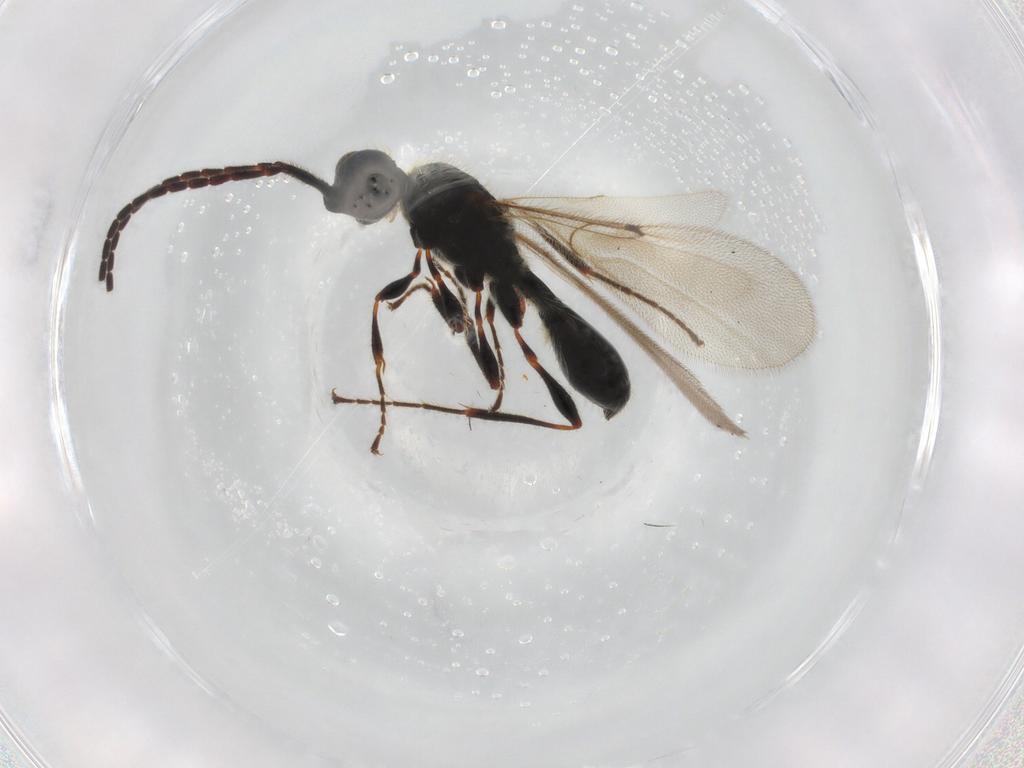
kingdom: Animalia
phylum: Arthropoda
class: Insecta
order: Hymenoptera
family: Diapriidae
